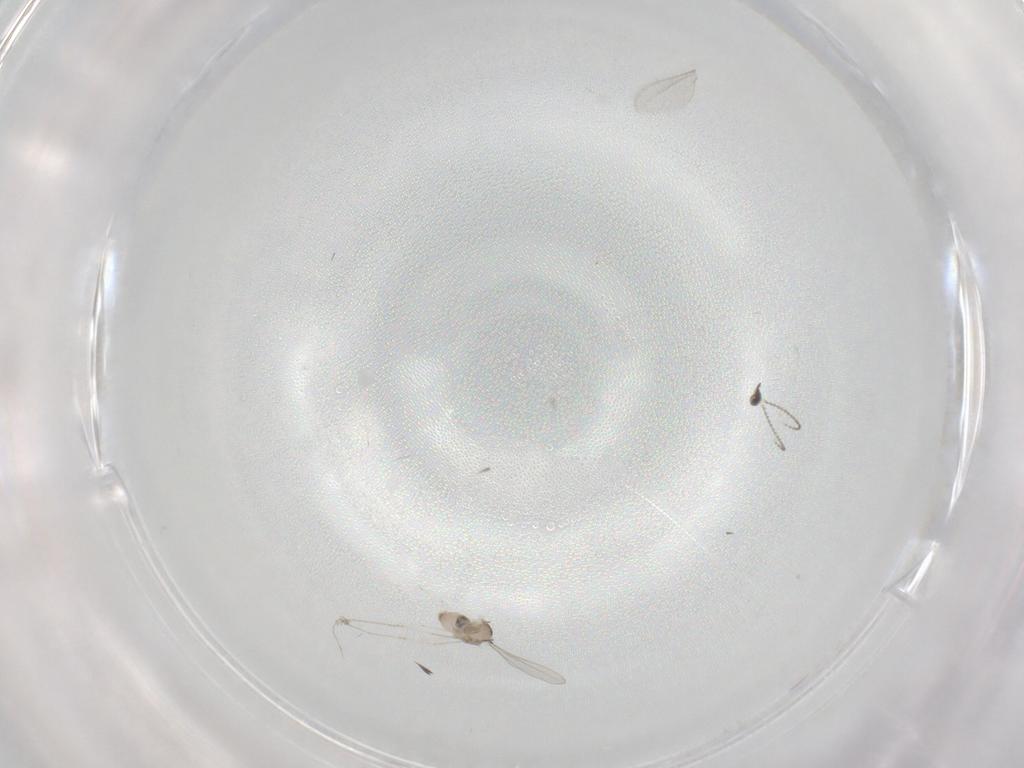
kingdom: Animalia
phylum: Arthropoda
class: Insecta
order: Diptera
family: Cecidomyiidae
